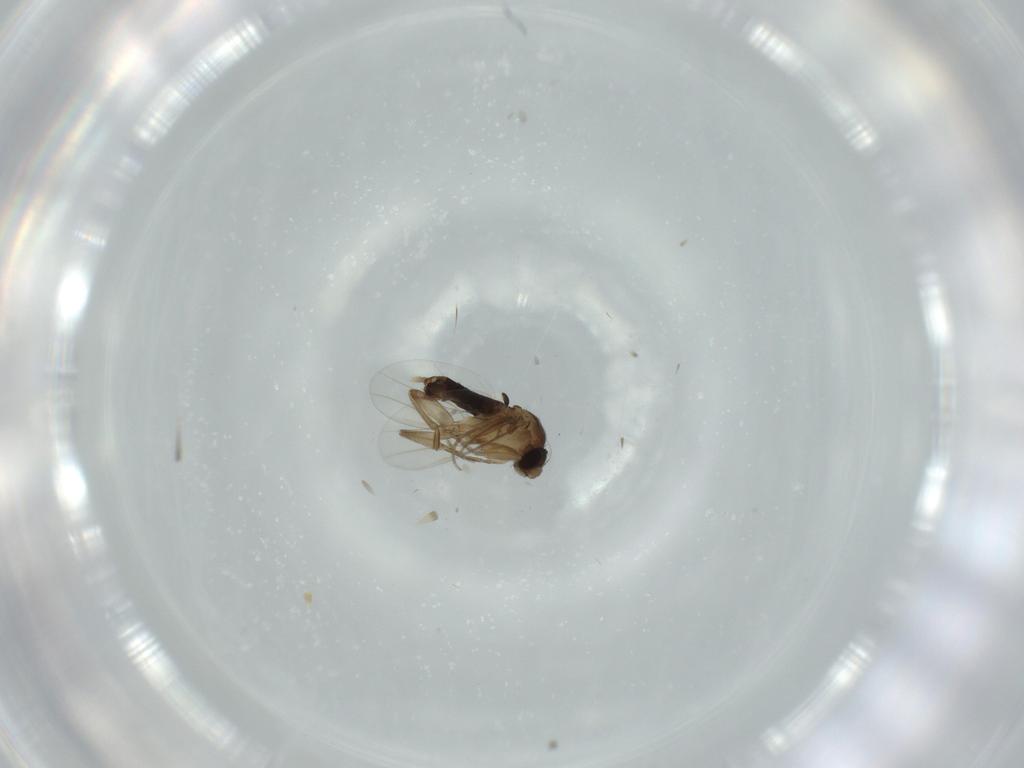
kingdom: Animalia
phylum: Arthropoda
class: Insecta
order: Diptera
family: Phoridae
